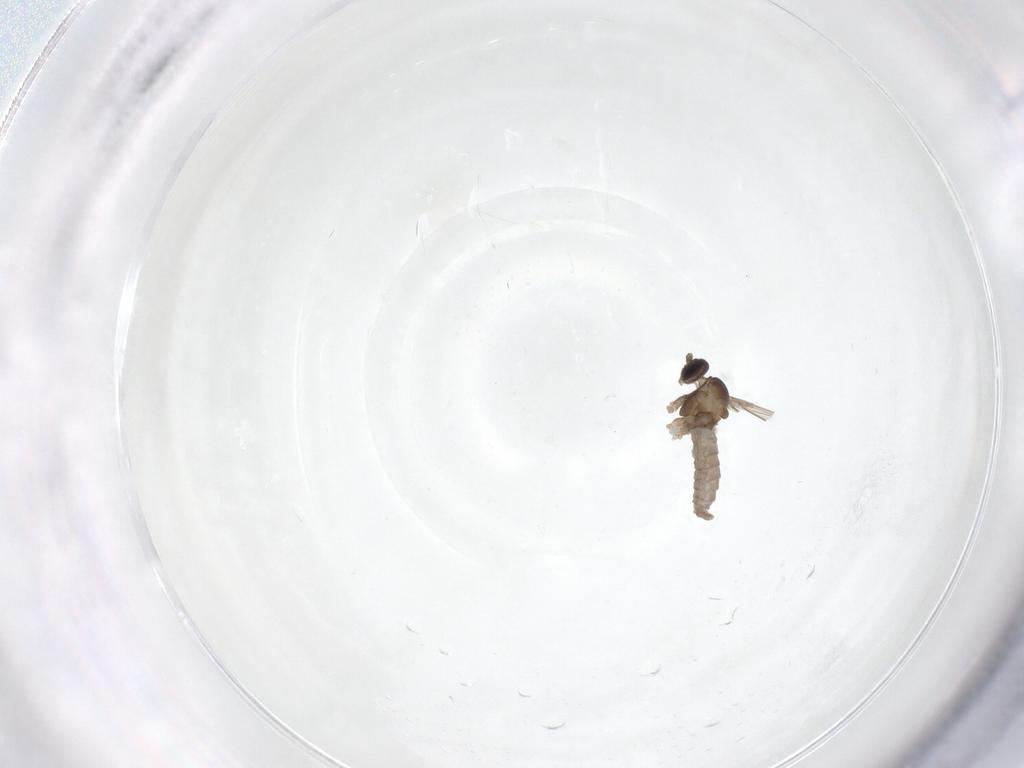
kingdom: Animalia
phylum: Arthropoda
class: Insecta
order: Diptera
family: Cecidomyiidae
